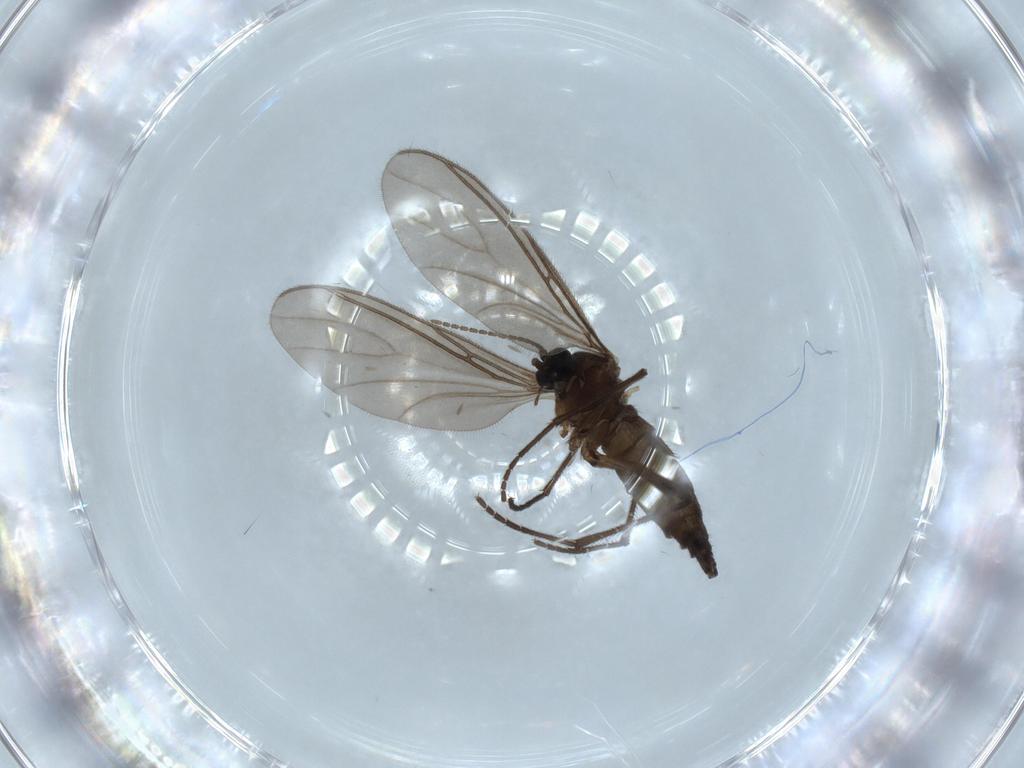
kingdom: Animalia
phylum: Arthropoda
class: Insecta
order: Diptera
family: Sciaridae
